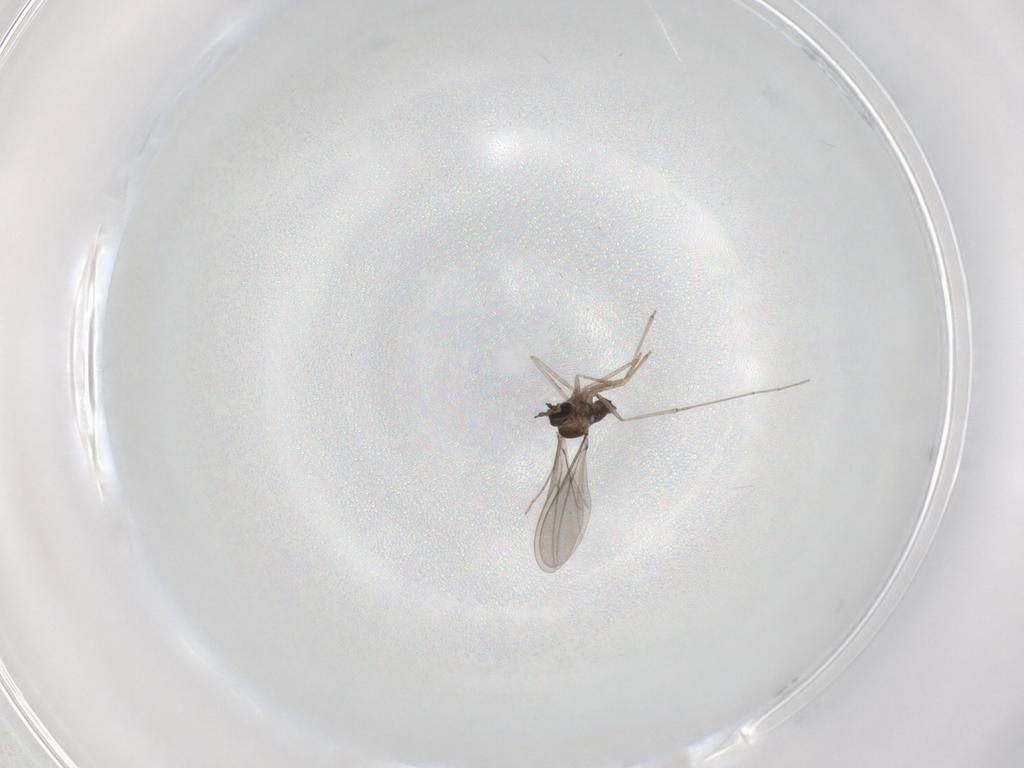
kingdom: Animalia
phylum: Arthropoda
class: Insecta
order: Diptera
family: Dolichopodidae
